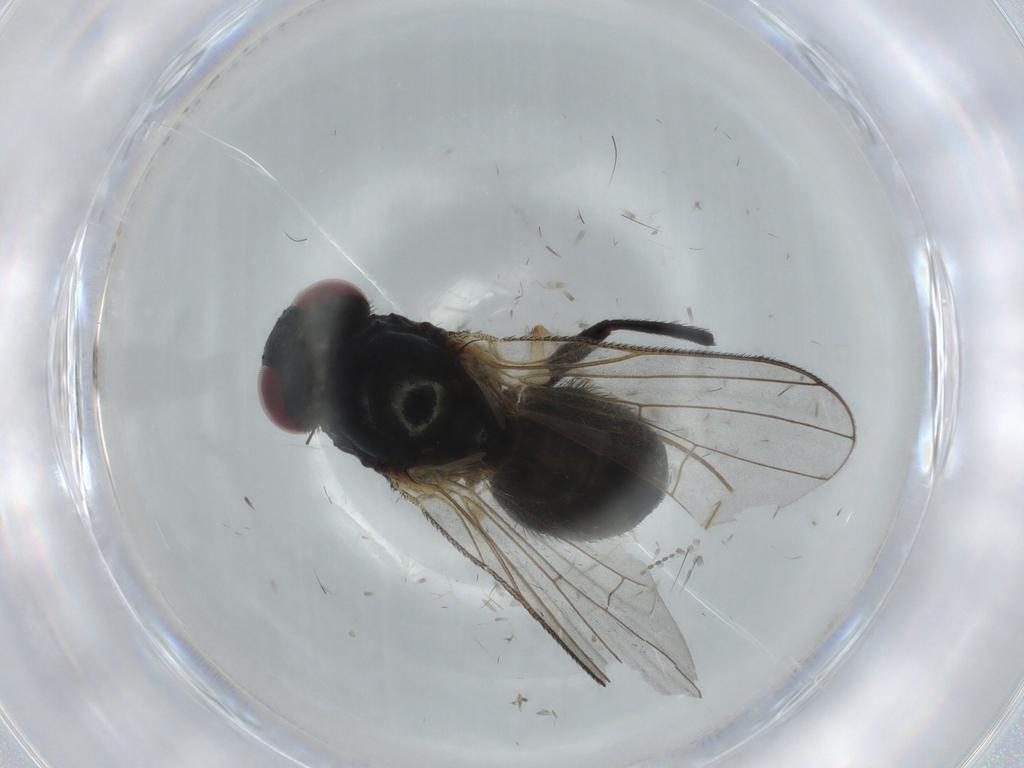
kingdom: Animalia
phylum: Arthropoda
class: Insecta
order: Diptera
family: Fannia
